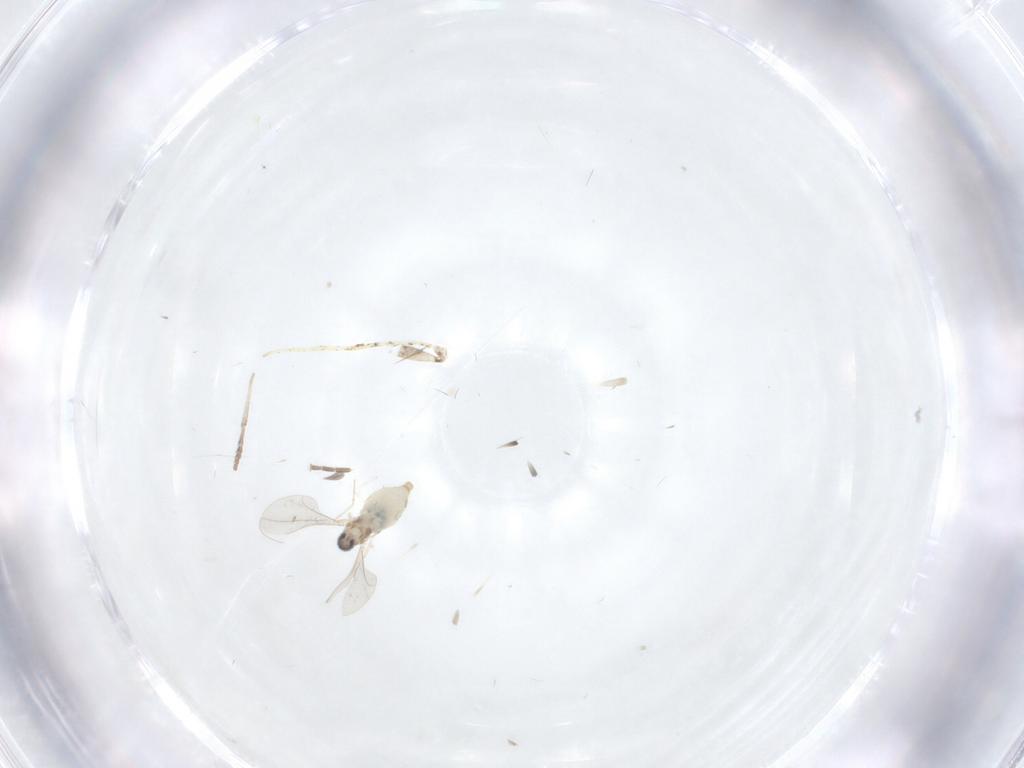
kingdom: Animalia
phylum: Arthropoda
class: Insecta
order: Diptera
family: Psychodidae
